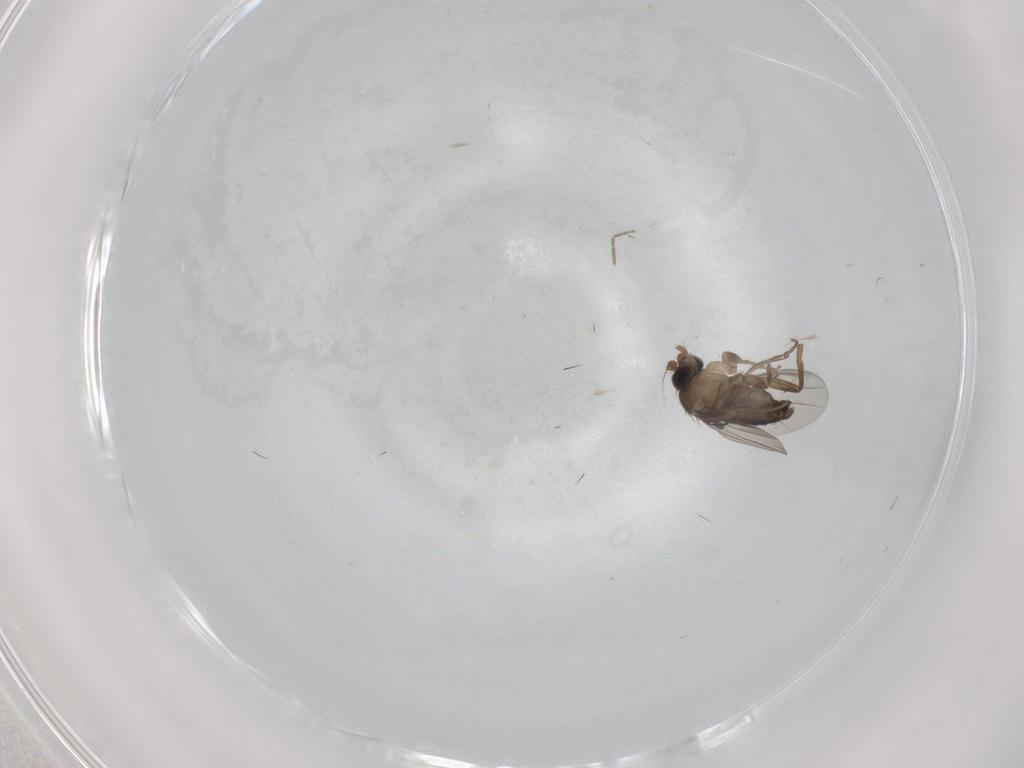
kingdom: Animalia
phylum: Arthropoda
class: Insecta
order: Diptera
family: Phoridae
